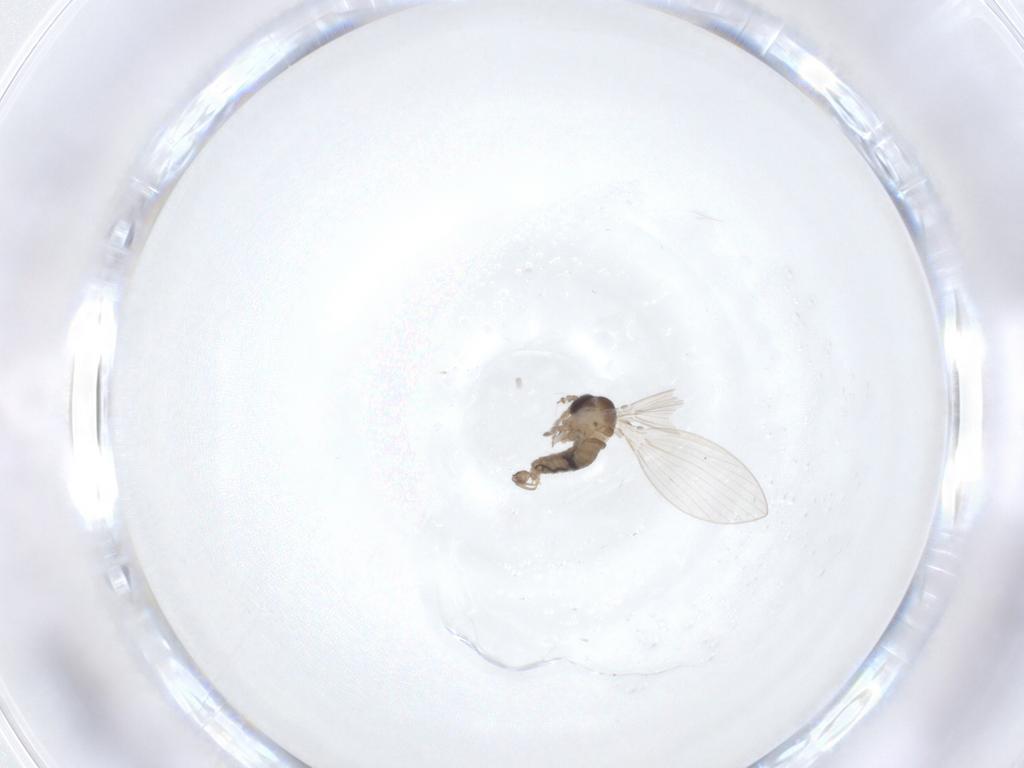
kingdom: Animalia
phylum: Arthropoda
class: Insecta
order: Diptera
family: Psychodidae
